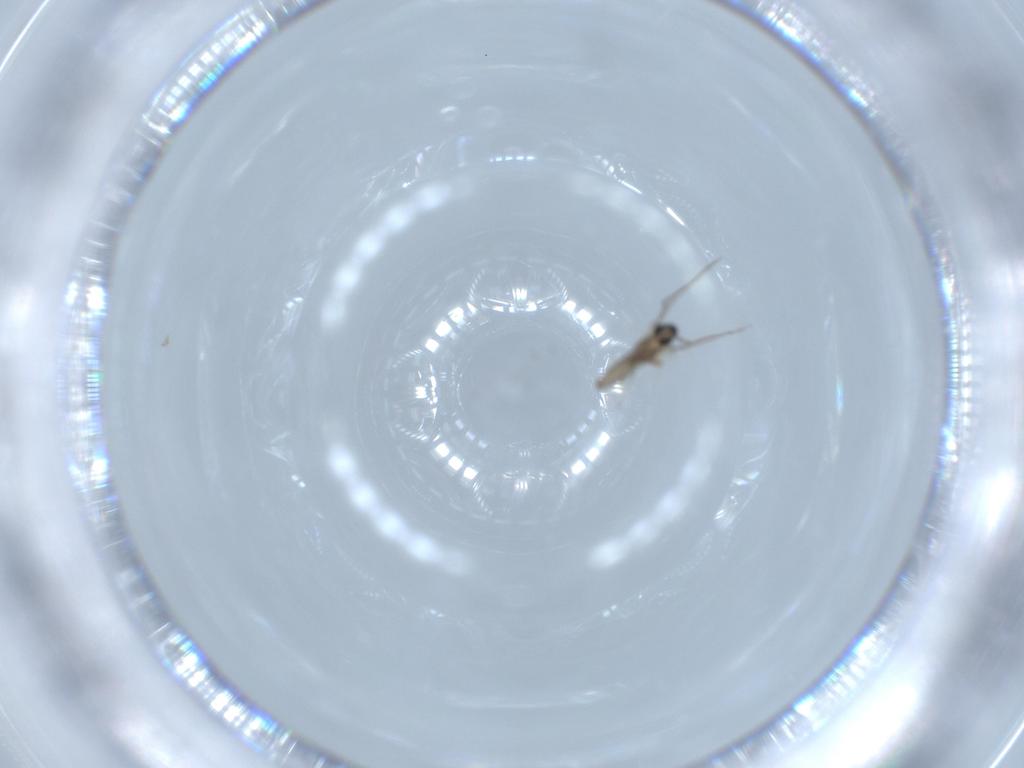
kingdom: Animalia
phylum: Arthropoda
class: Insecta
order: Diptera
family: Cecidomyiidae
